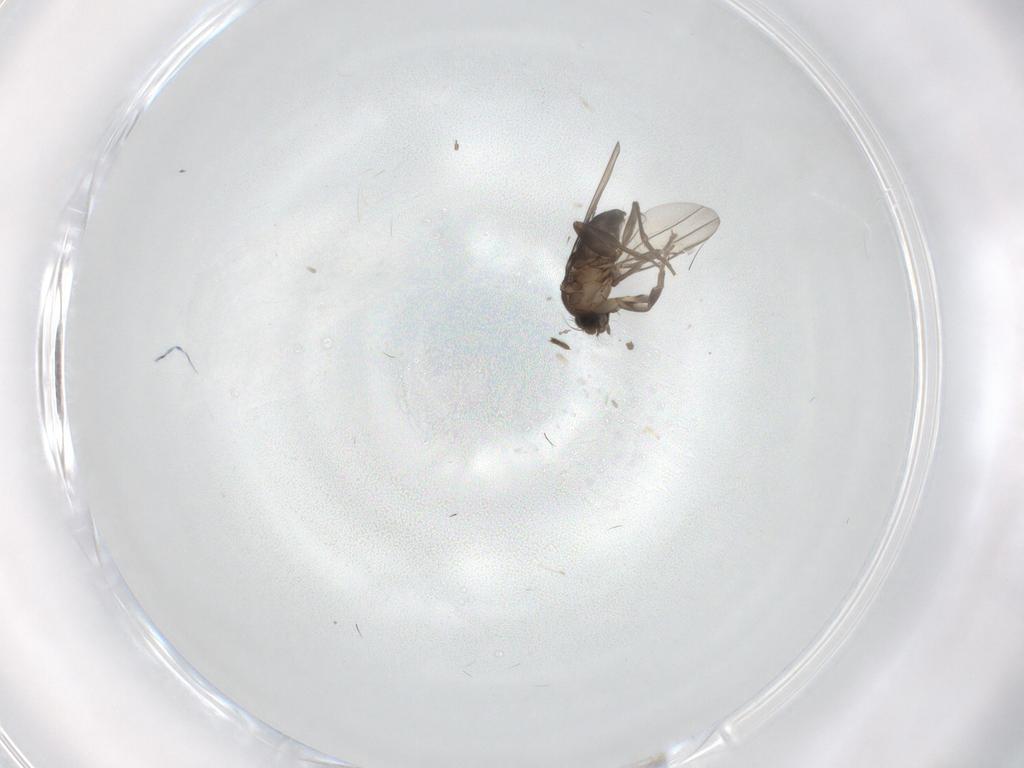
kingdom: Animalia
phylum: Arthropoda
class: Insecta
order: Diptera
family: Phoridae
